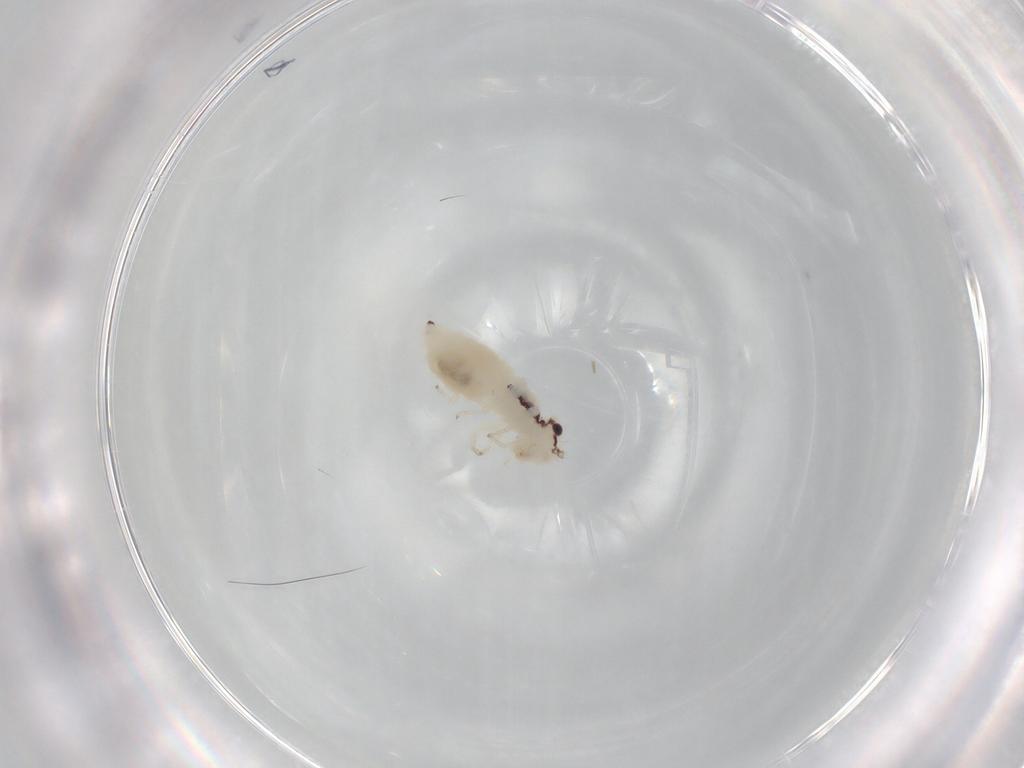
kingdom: Animalia
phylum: Arthropoda
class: Insecta
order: Psocodea
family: Philotarsidae
